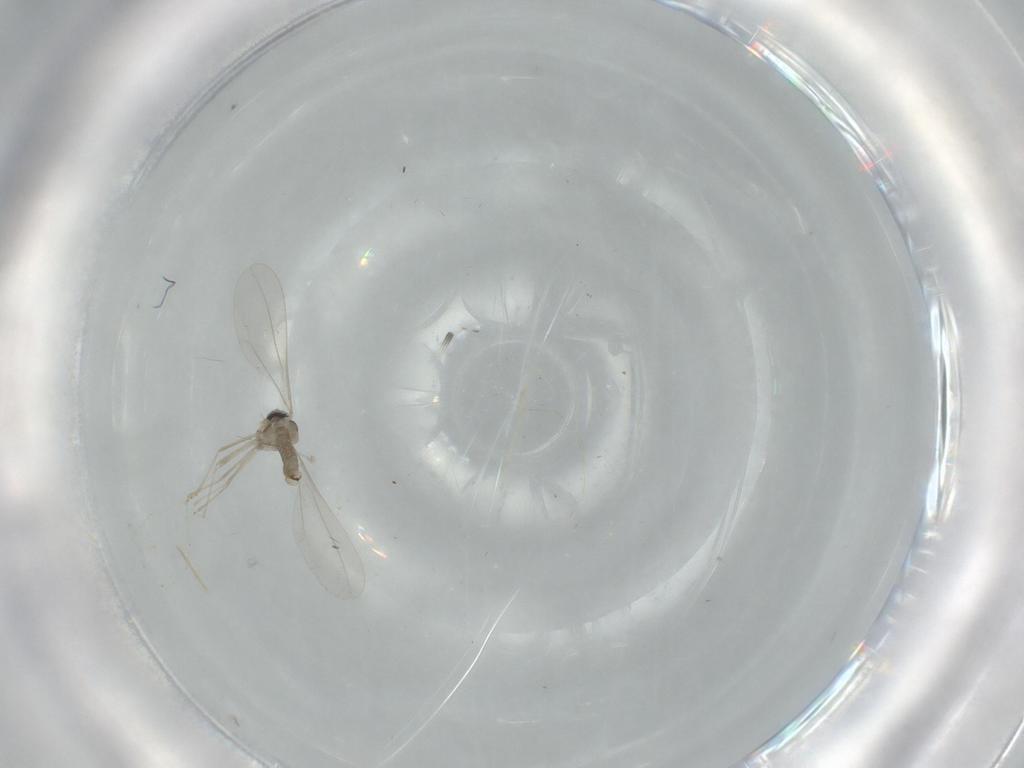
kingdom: Animalia
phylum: Arthropoda
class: Insecta
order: Diptera
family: Cecidomyiidae
